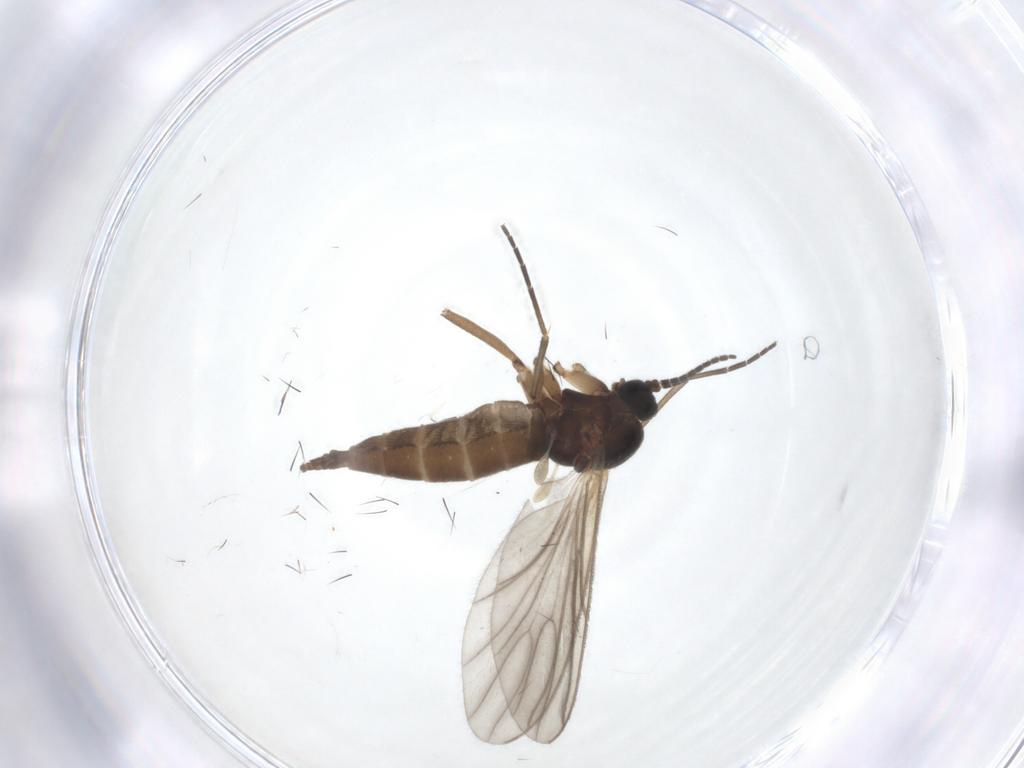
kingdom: Animalia
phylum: Arthropoda
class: Insecta
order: Diptera
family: Sciaridae
